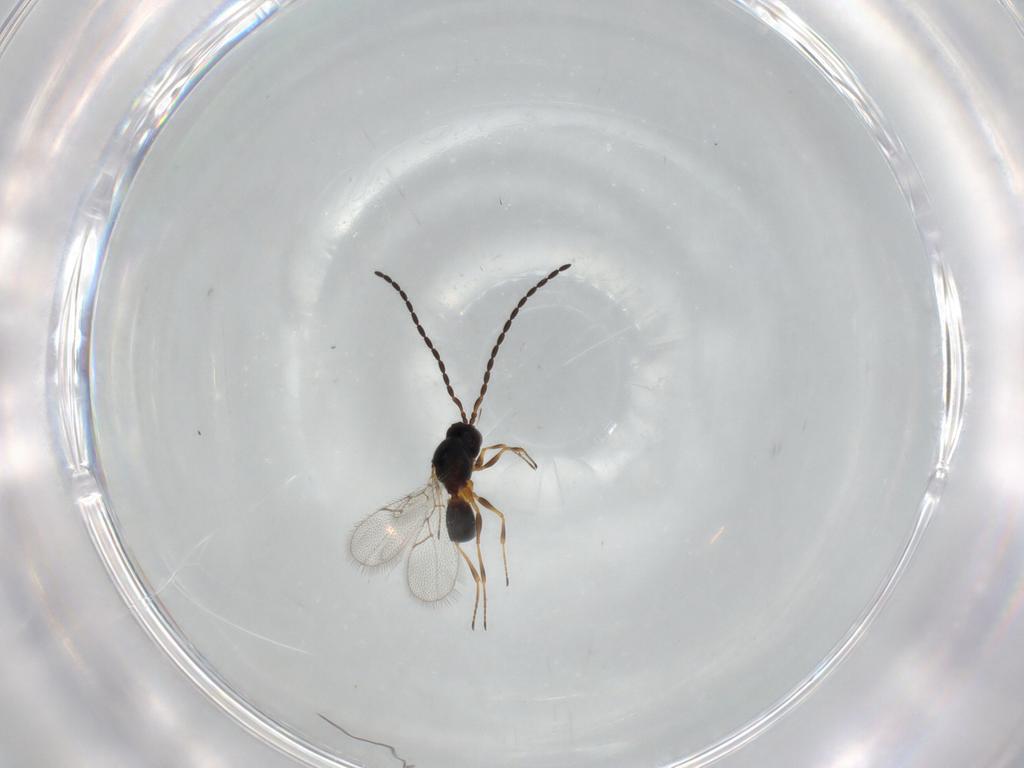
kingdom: Animalia
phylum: Arthropoda
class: Insecta
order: Hymenoptera
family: Figitidae
